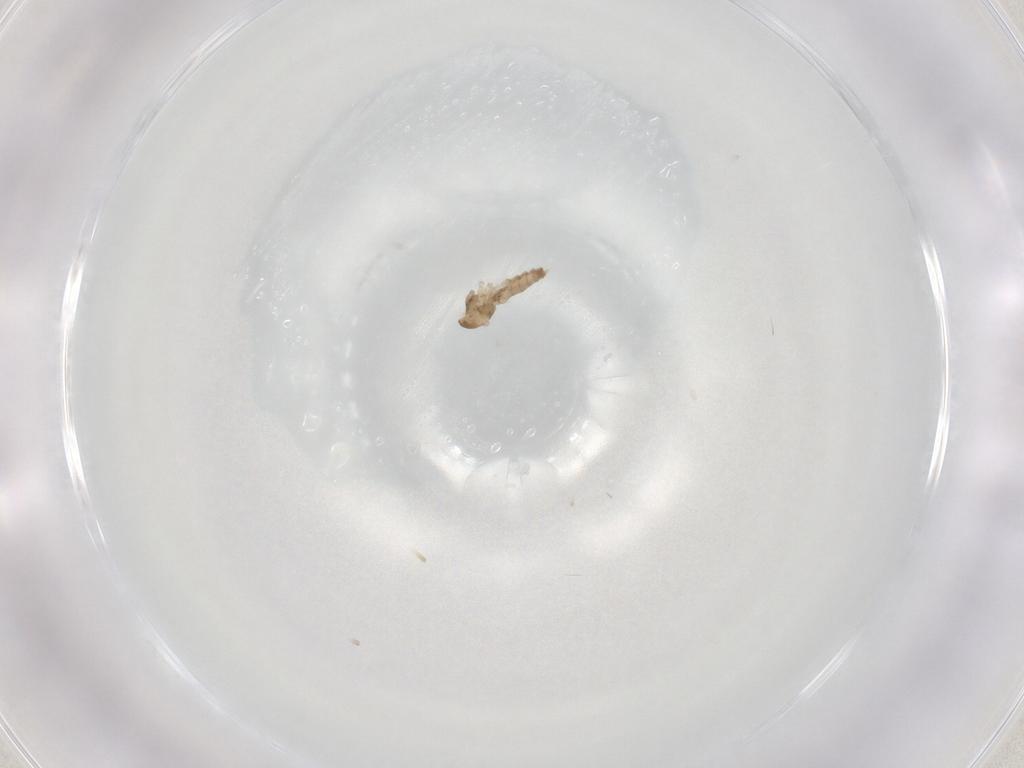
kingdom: Animalia
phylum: Arthropoda
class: Insecta
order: Diptera
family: Cecidomyiidae
